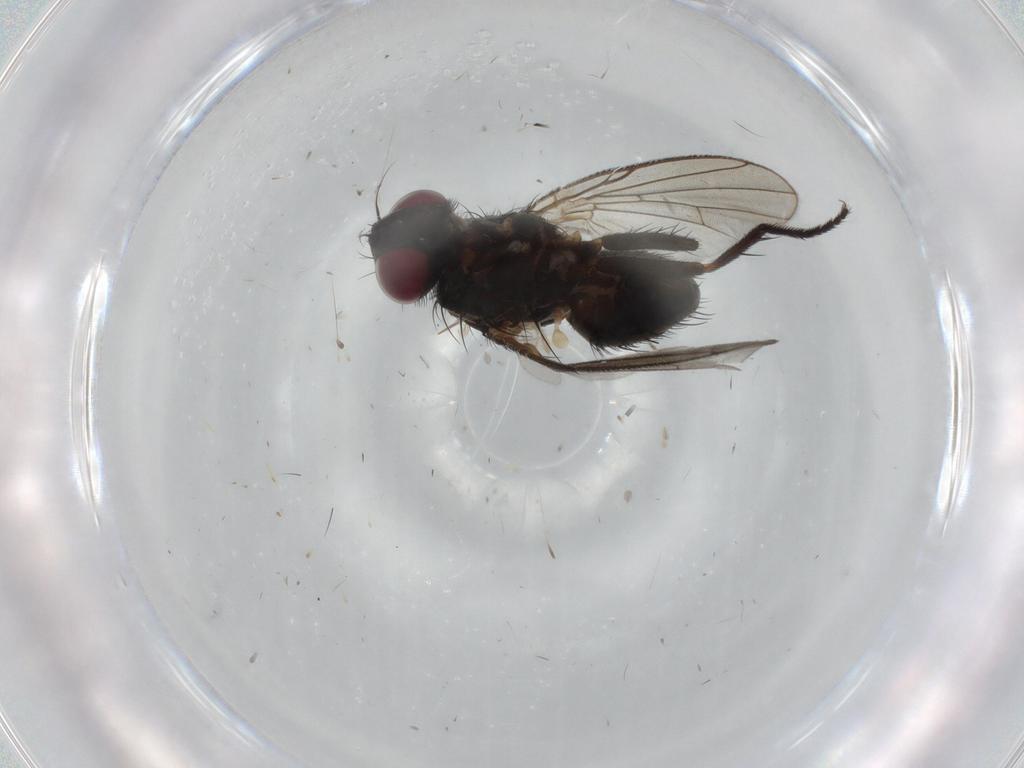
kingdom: Animalia
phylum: Arthropoda
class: Insecta
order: Diptera
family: Muscidae
